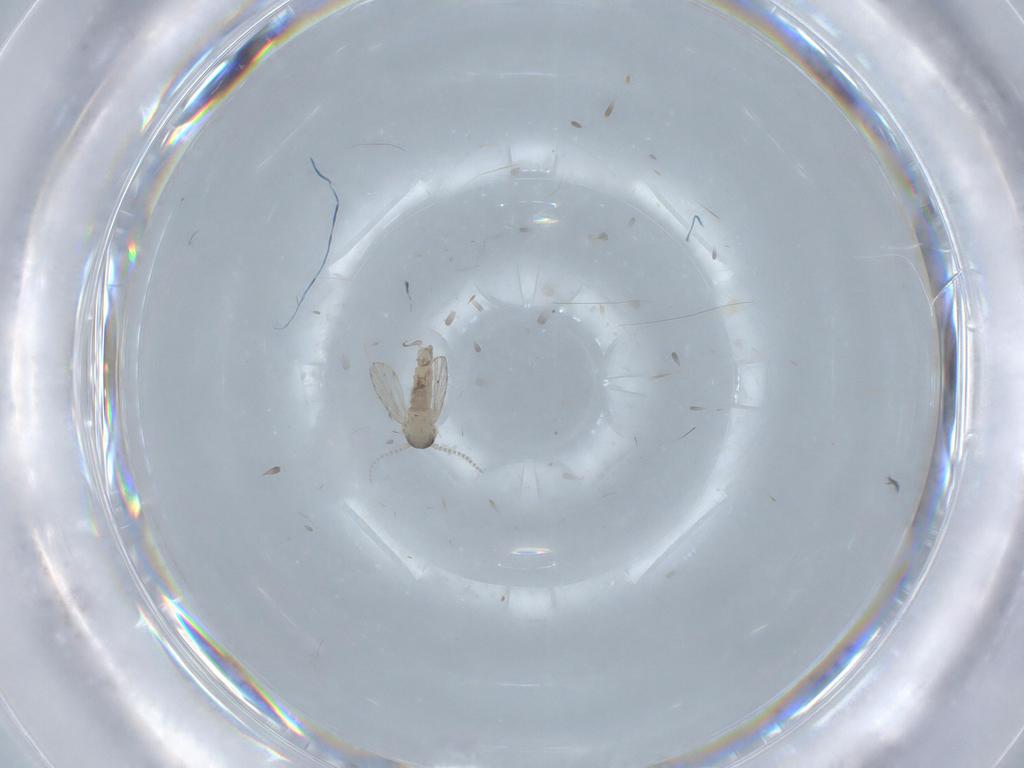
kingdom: Animalia
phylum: Arthropoda
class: Insecta
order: Diptera
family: Psychodidae
